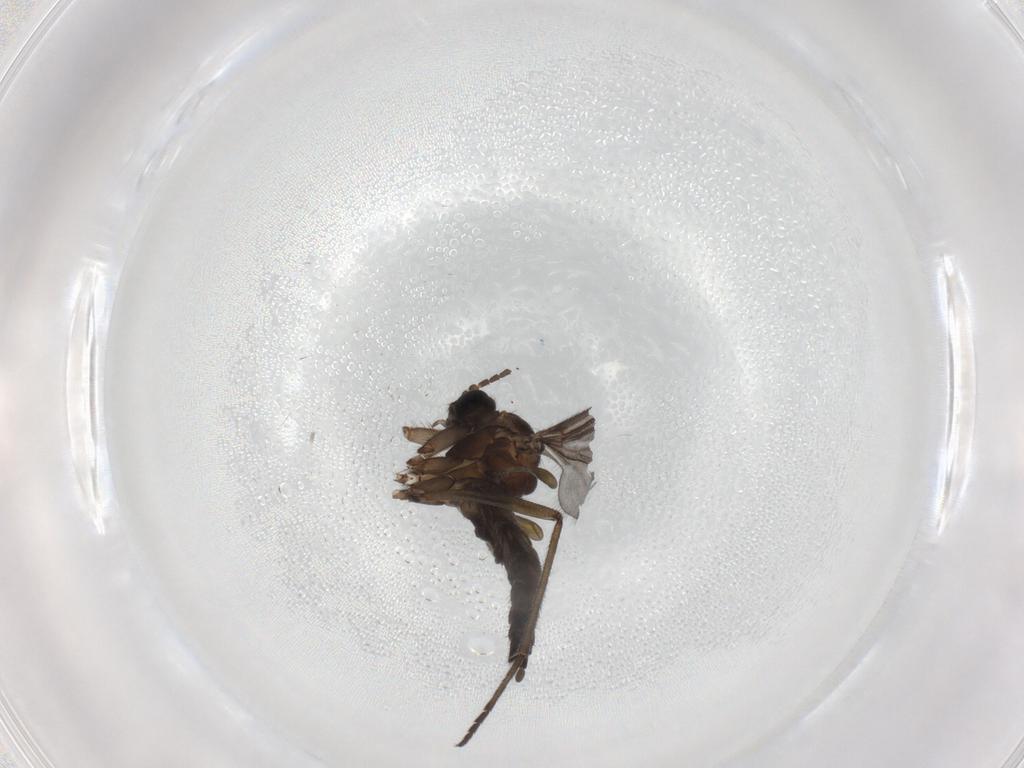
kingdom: Animalia
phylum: Arthropoda
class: Insecta
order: Diptera
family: Sciaridae
